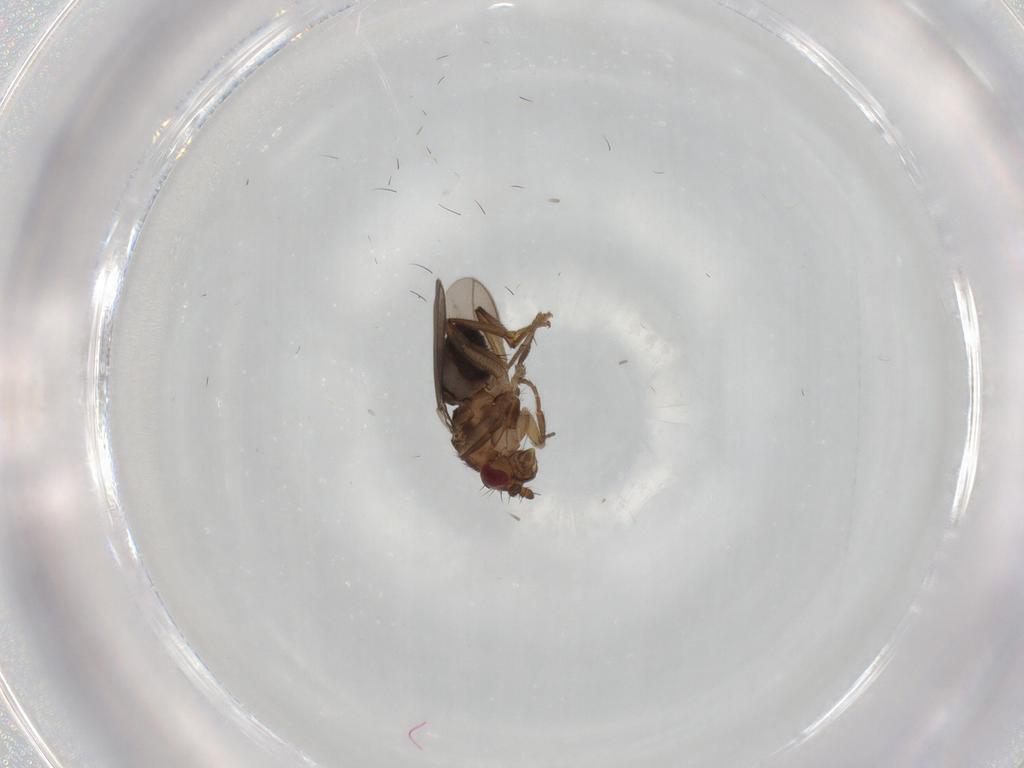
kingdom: Animalia
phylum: Arthropoda
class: Insecta
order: Diptera
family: Sphaeroceridae
